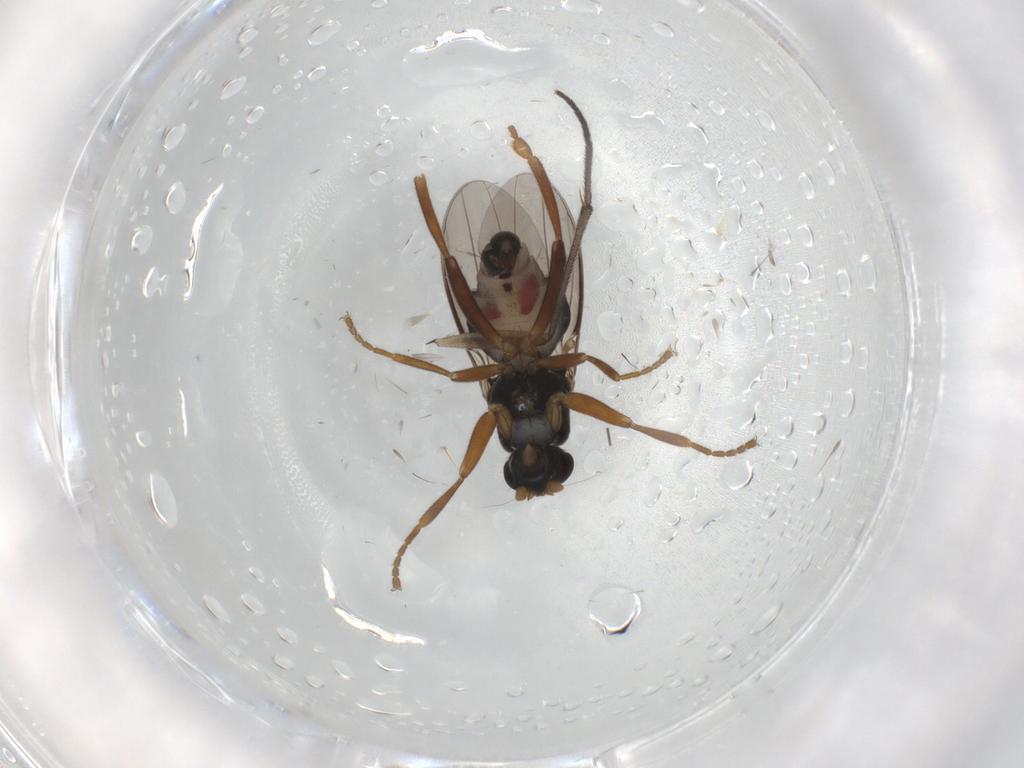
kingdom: Animalia
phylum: Arthropoda
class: Insecta
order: Diptera
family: Sphaeroceridae
